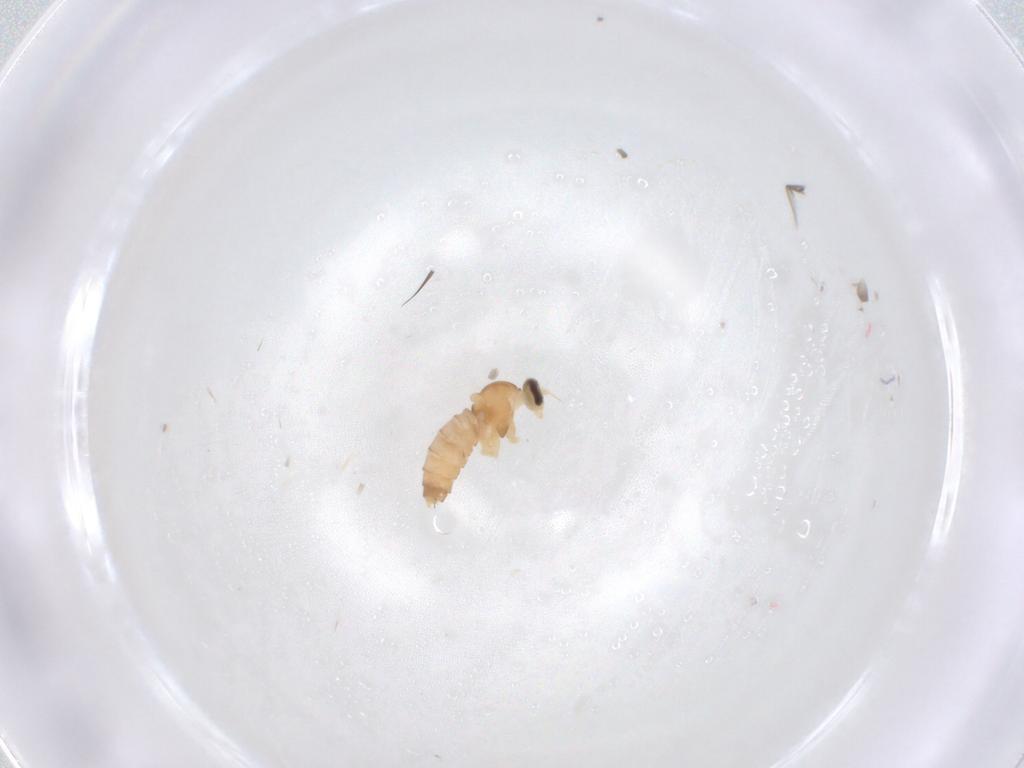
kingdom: Animalia
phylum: Arthropoda
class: Insecta
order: Diptera
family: Cecidomyiidae
